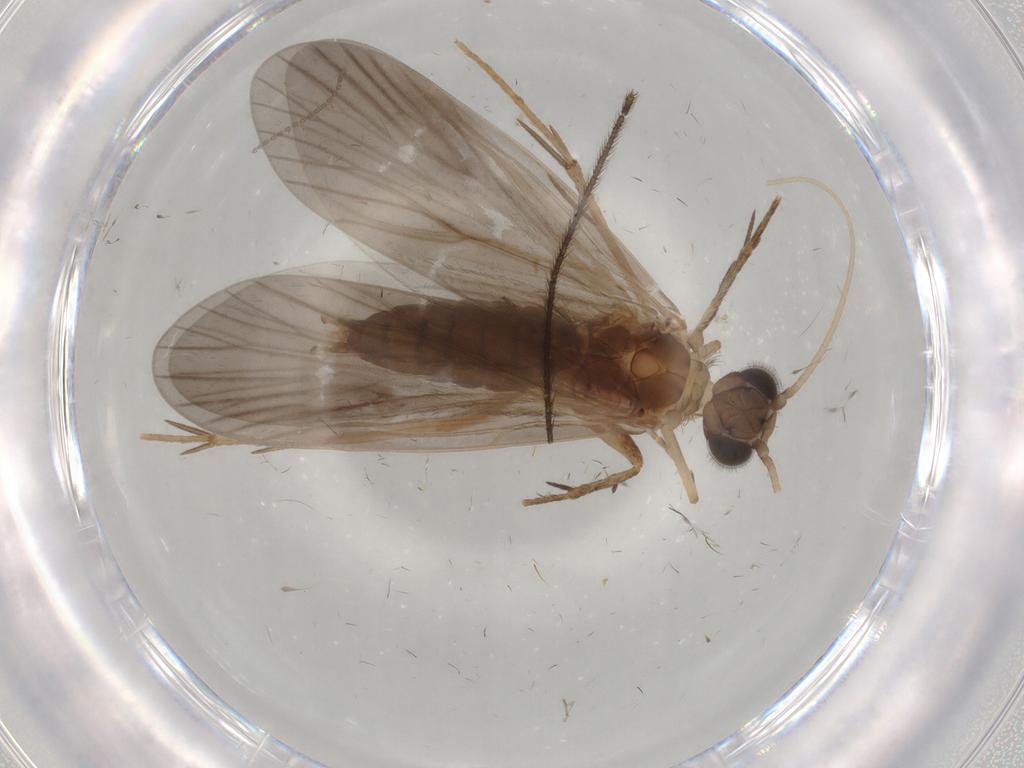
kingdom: Animalia
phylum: Arthropoda
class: Insecta
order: Trichoptera
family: Philopotamidae
